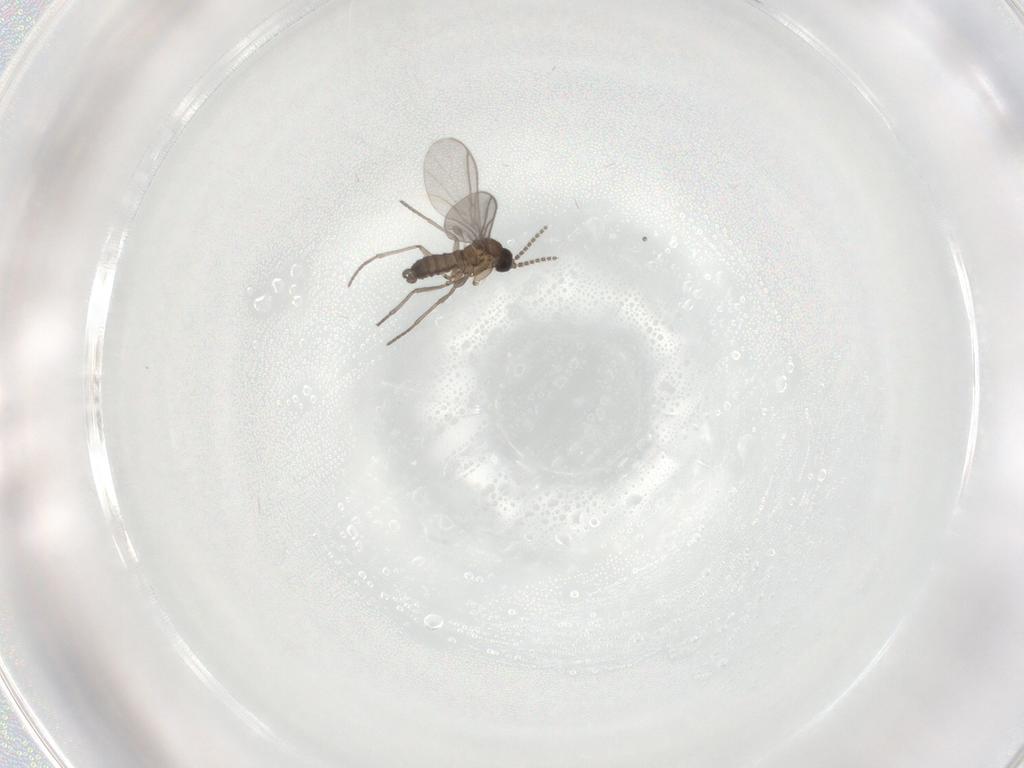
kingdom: Animalia
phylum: Arthropoda
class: Insecta
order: Diptera
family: Sciaridae
